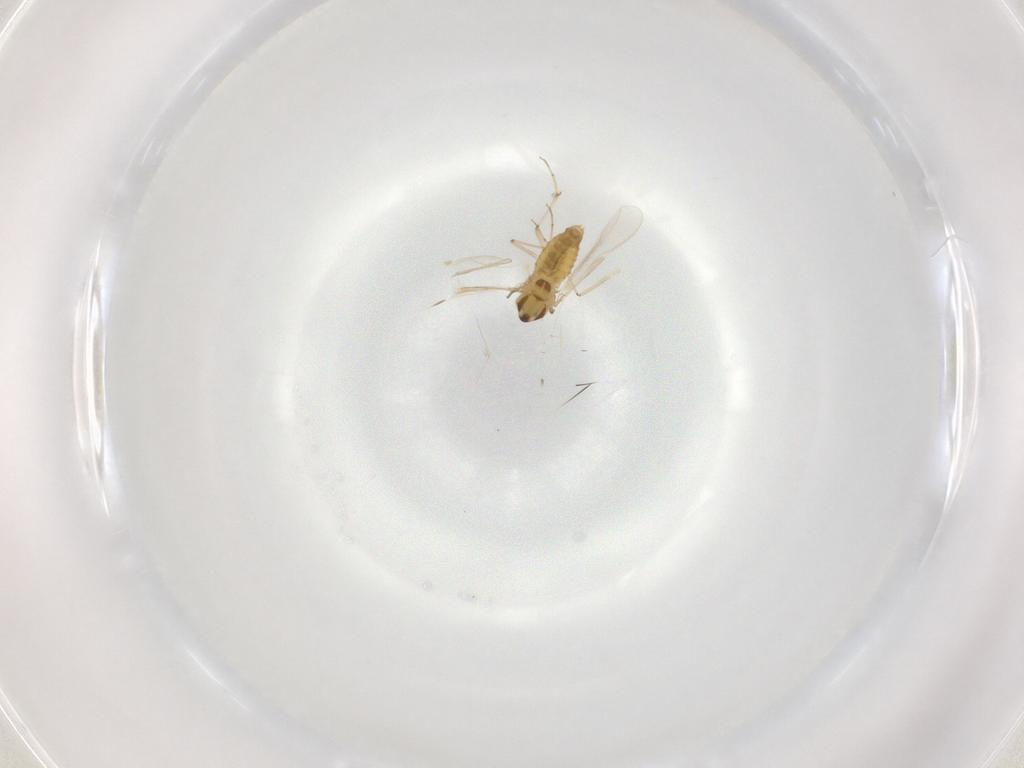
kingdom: Animalia
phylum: Arthropoda
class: Insecta
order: Diptera
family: Chironomidae
